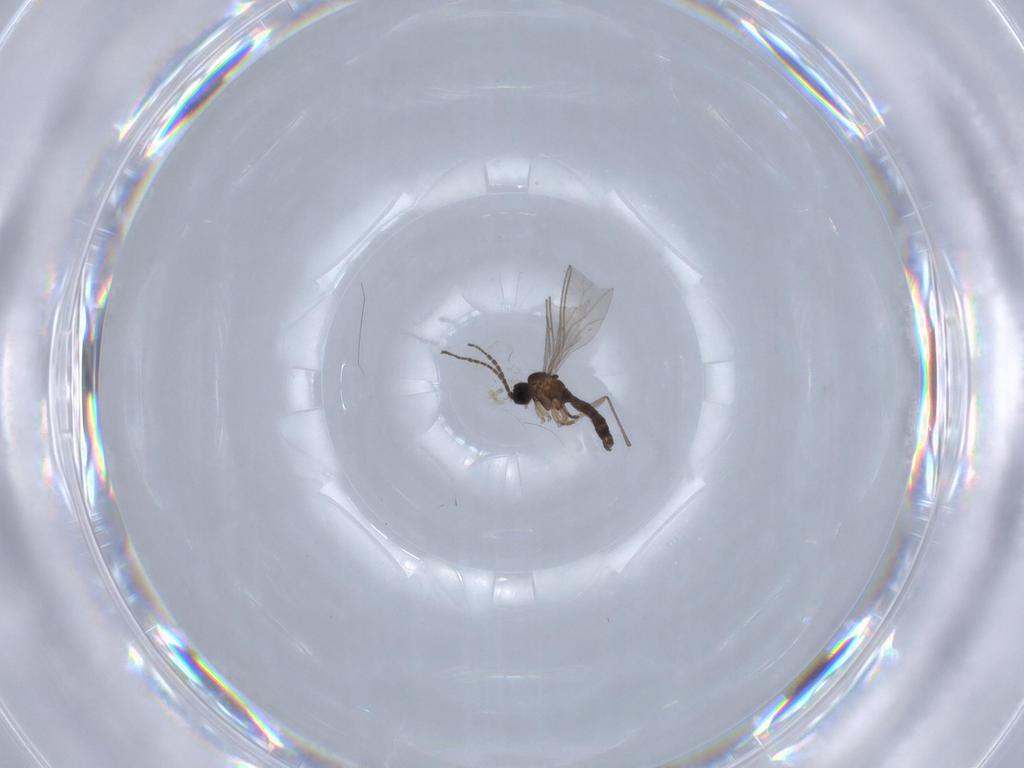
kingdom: Animalia
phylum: Arthropoda
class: Insecta
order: Diptera
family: Sciaridae
